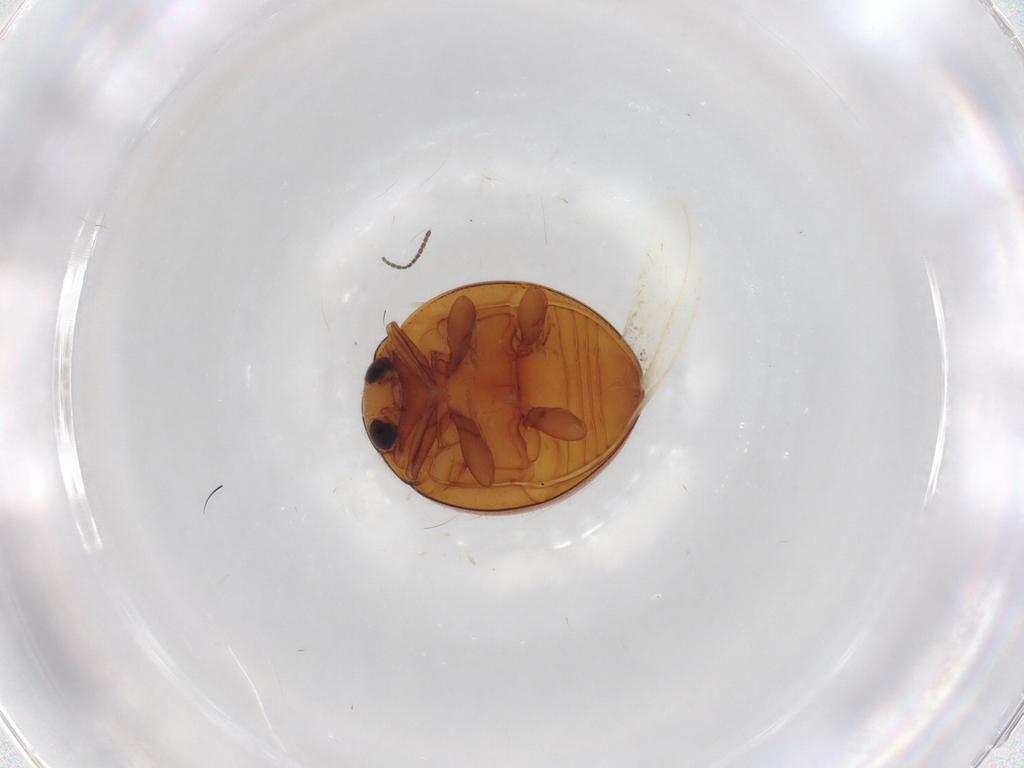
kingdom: Animalia
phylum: Arthropoda
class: Insecta
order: Coleoptera
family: Coccinellidae
